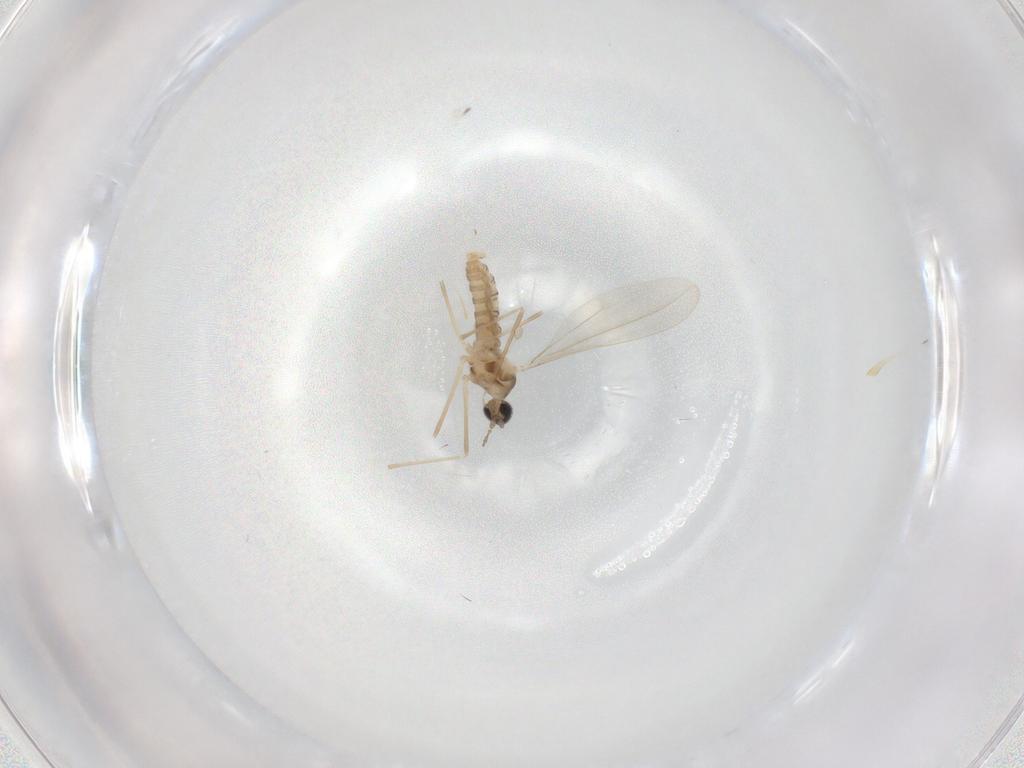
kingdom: Animalia
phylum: Arthropoda
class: Insecta
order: Diptera
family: Cecidomyiidae
